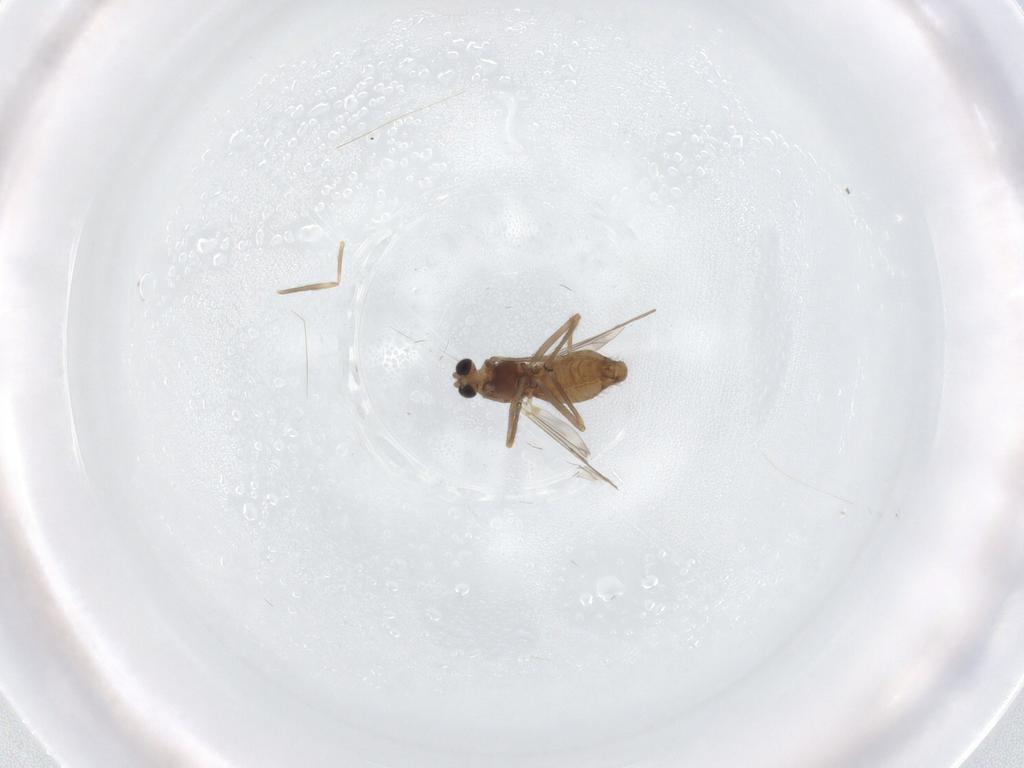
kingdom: Animalia
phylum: Arthropoda
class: Insecta
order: Diptera
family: Chironomidae
